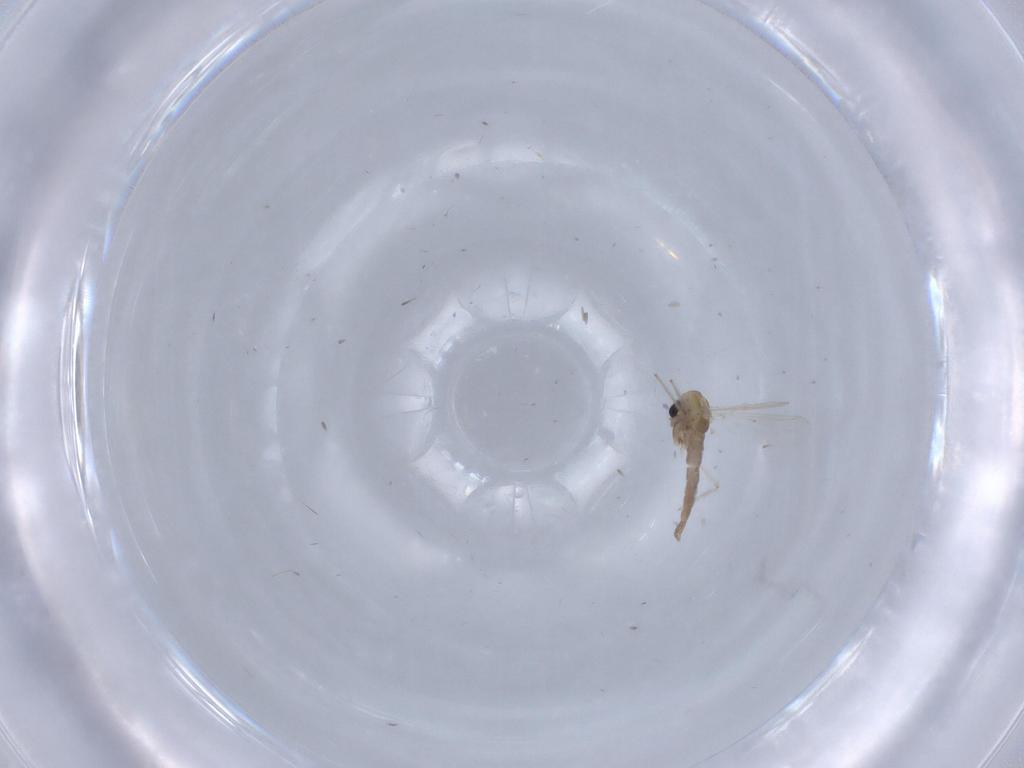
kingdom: Animalia
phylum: Arthropoda
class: Insecta
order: Diptera
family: Chironomidae
